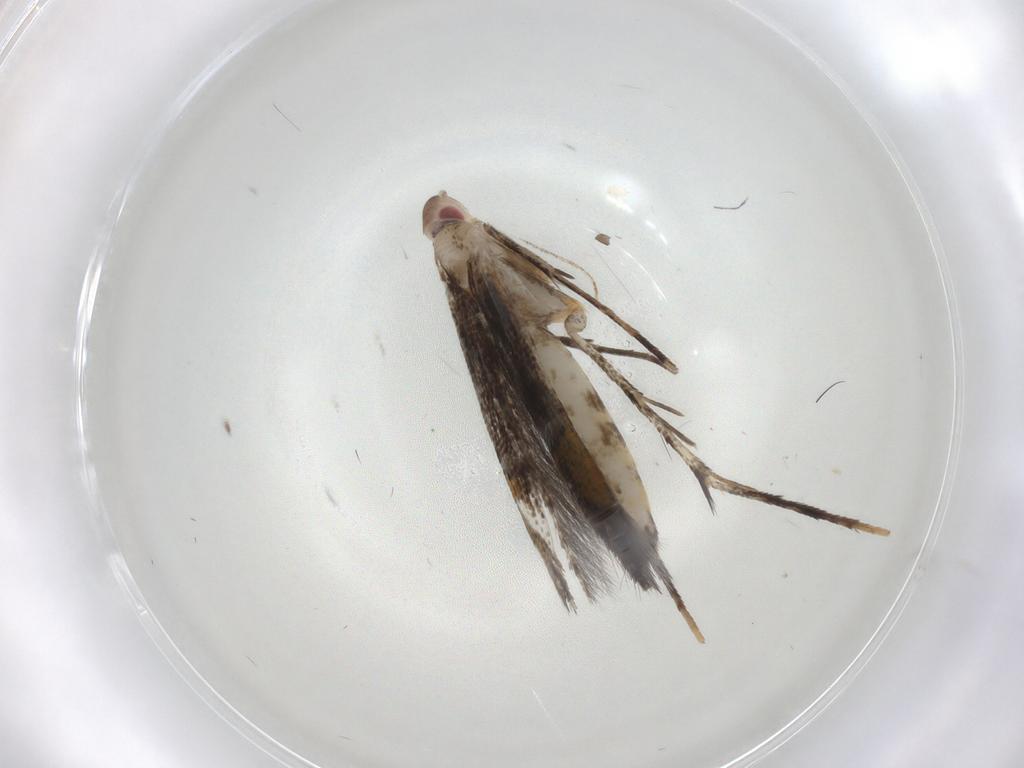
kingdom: Animalia
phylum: Arthropoda
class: Insecta
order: Lepidoptera
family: Cosmopterigidae
